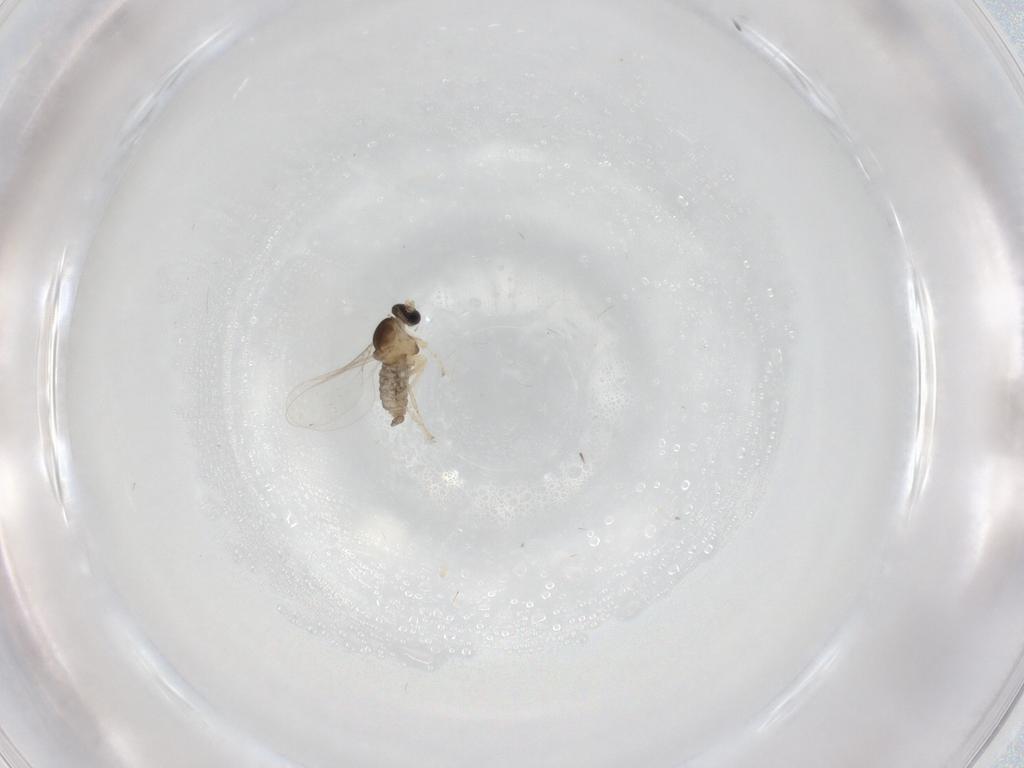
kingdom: Animalia
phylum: Arthropoda
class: Insecta
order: Diptera
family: Cecidomyiidae
